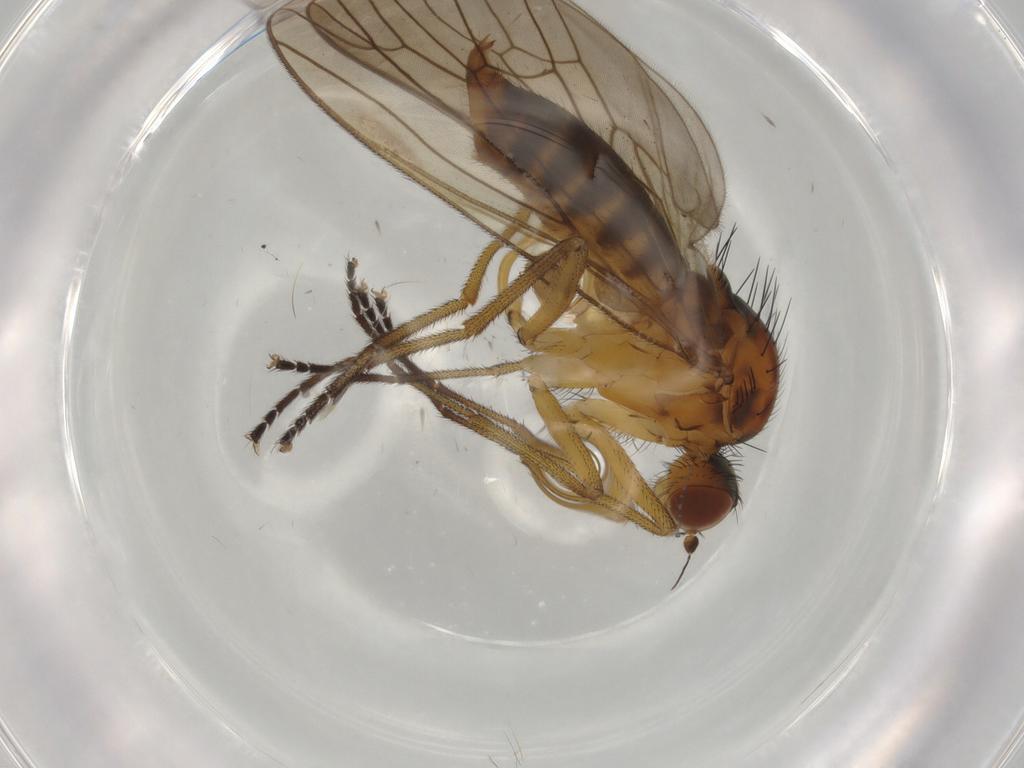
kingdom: Animalia
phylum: Arthropoda
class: Insecta
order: Diptera
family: Brachystomatidae
